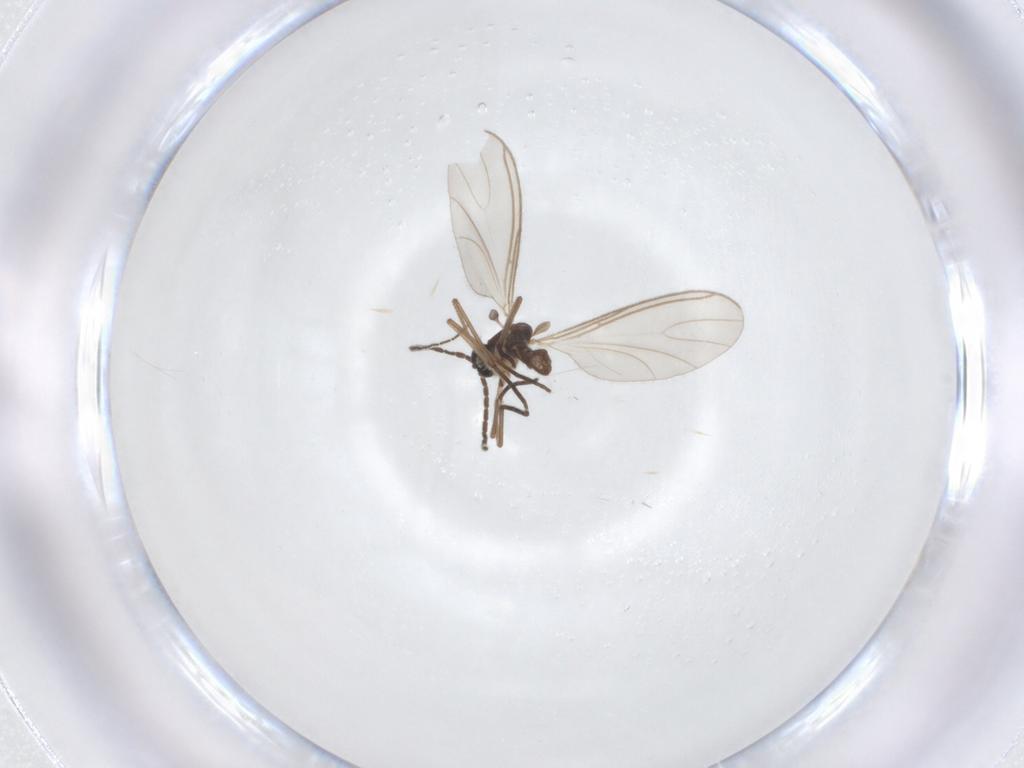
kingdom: Animalia
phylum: Arthropoda
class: Insecta
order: Diptera
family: Sciaridae
